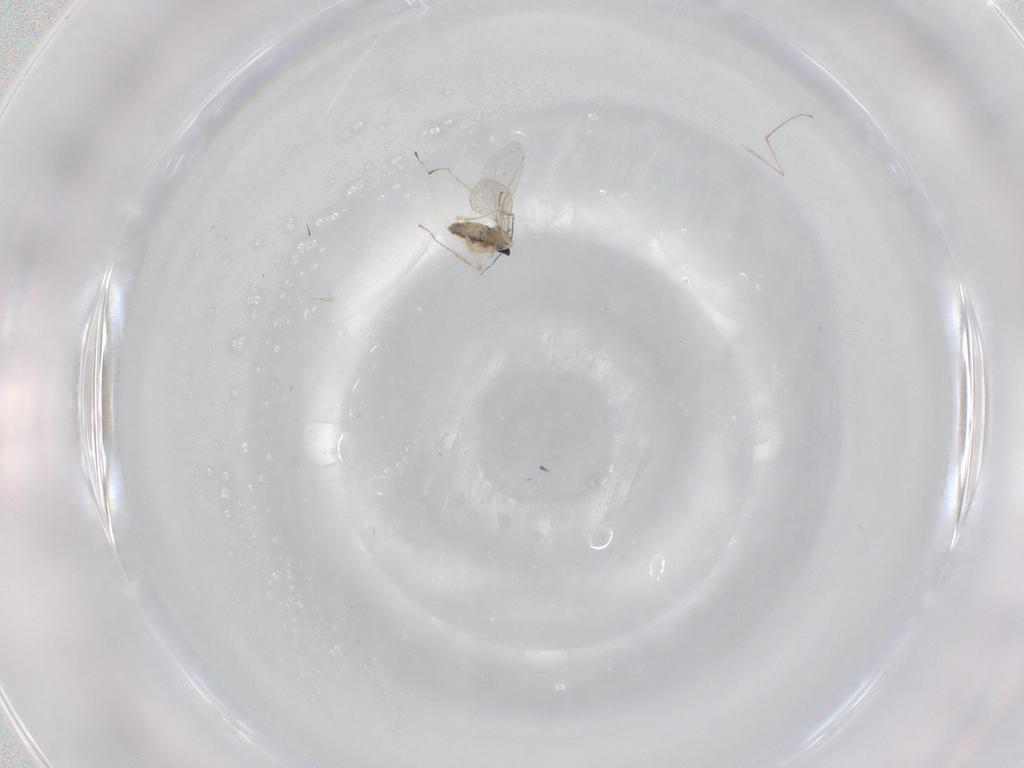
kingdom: Animalia
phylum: Arthropoda
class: Insecta
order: Diptera
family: Cecidomyiidae
